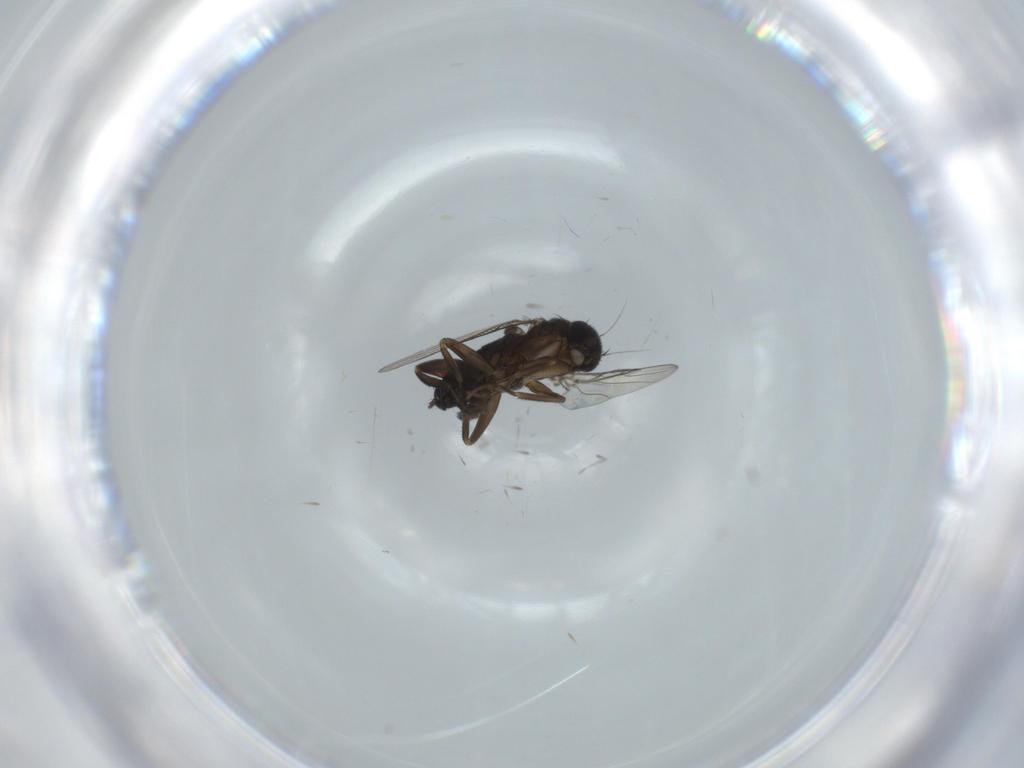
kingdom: Animalia
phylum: Arthropoda
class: Insecta
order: Diptera
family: Phoridae
